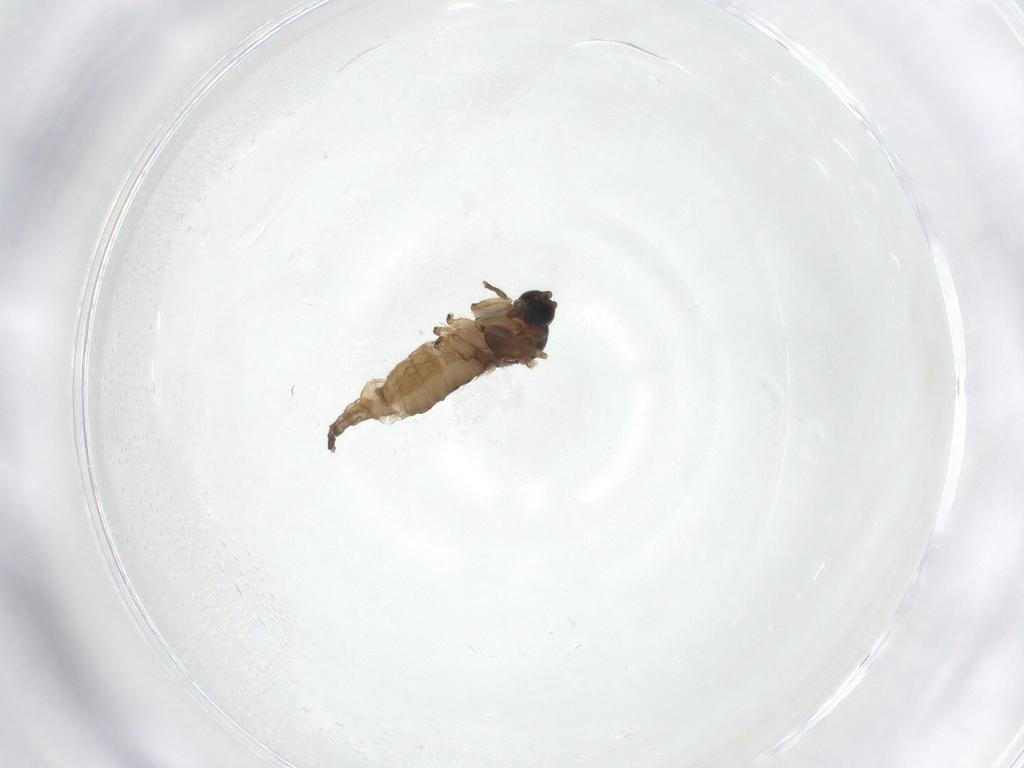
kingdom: Animalia
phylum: Arthropoda
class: Insecta
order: Diptera
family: Sciaridae
